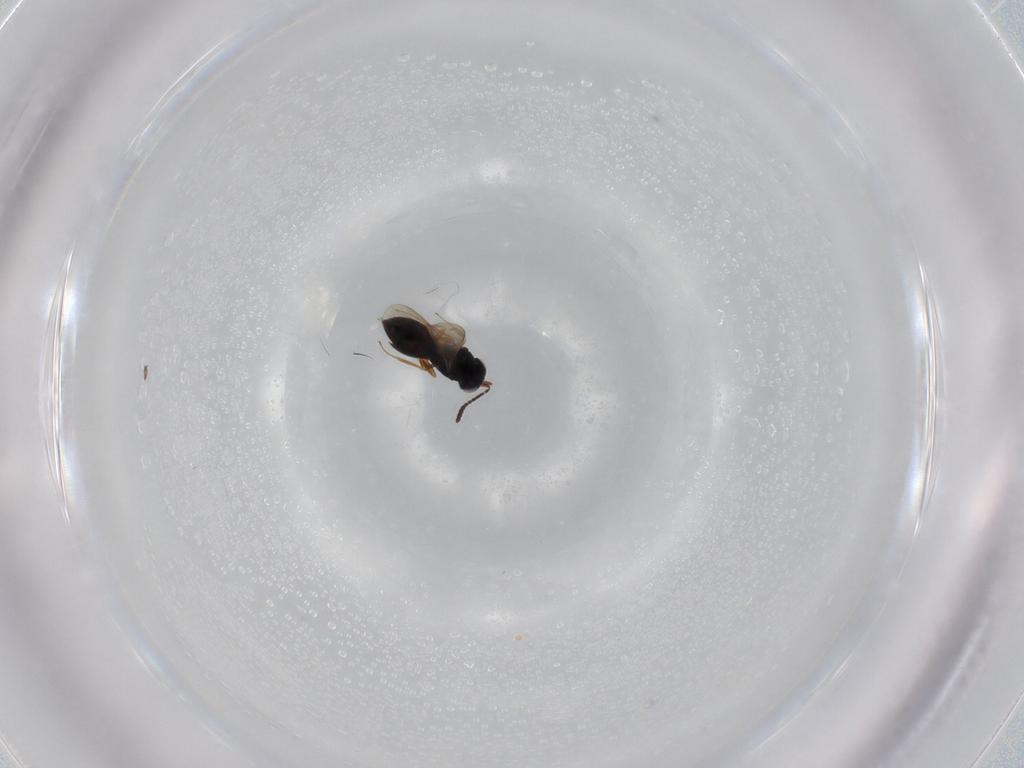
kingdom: Animalia
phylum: Arthropoda
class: Insecta
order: Hymenoptera
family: Scelionidae
